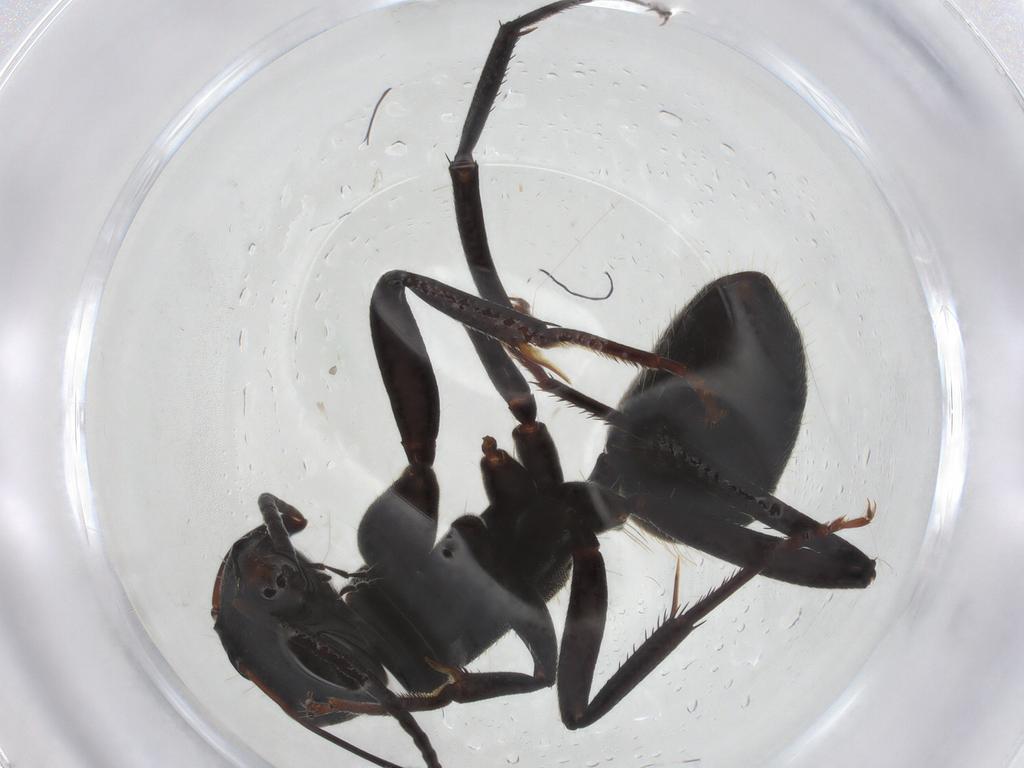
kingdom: Animalia
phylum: Arthropoda
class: Insecta
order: Hymenoptera
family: Formicidae
